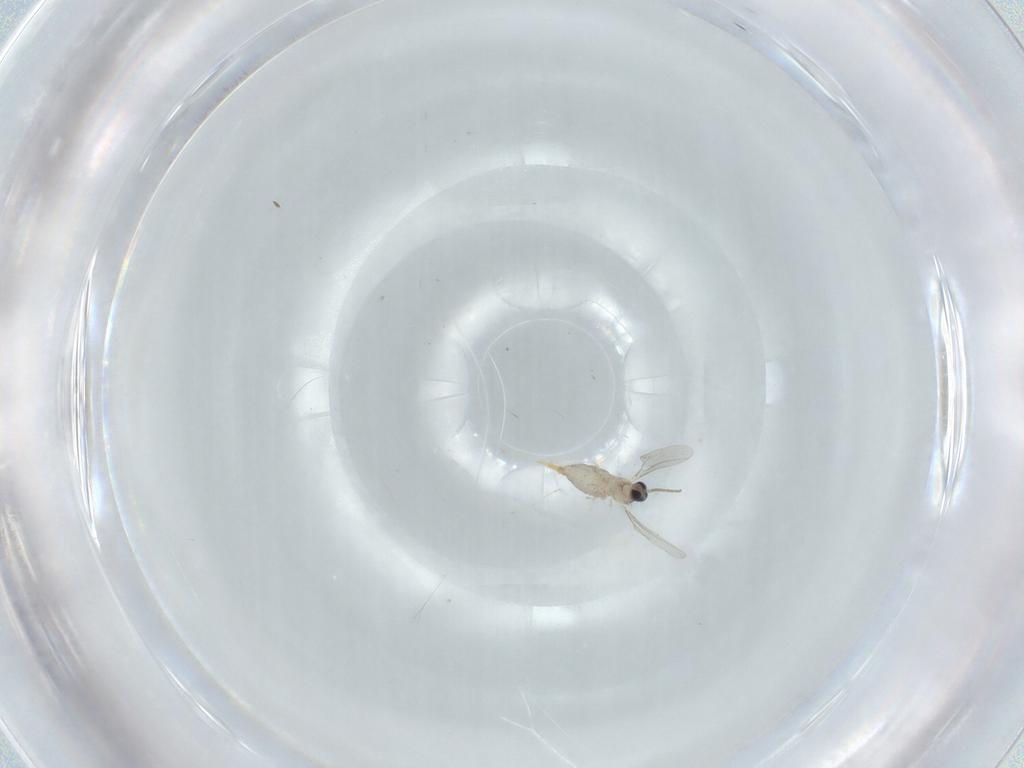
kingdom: Animalia
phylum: Arthropoda
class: Insecta
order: Diptera
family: Cecidomyiidae
